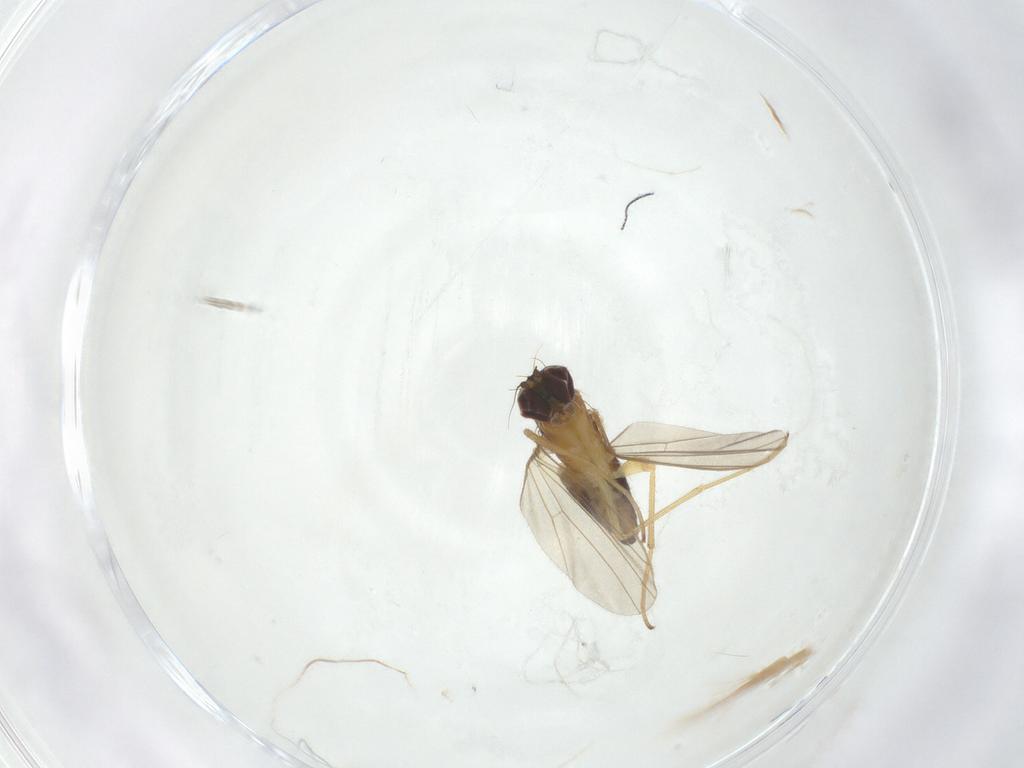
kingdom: Animalia
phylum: Arthropoda
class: Insecta
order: Diptera
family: Dolichopodidae
